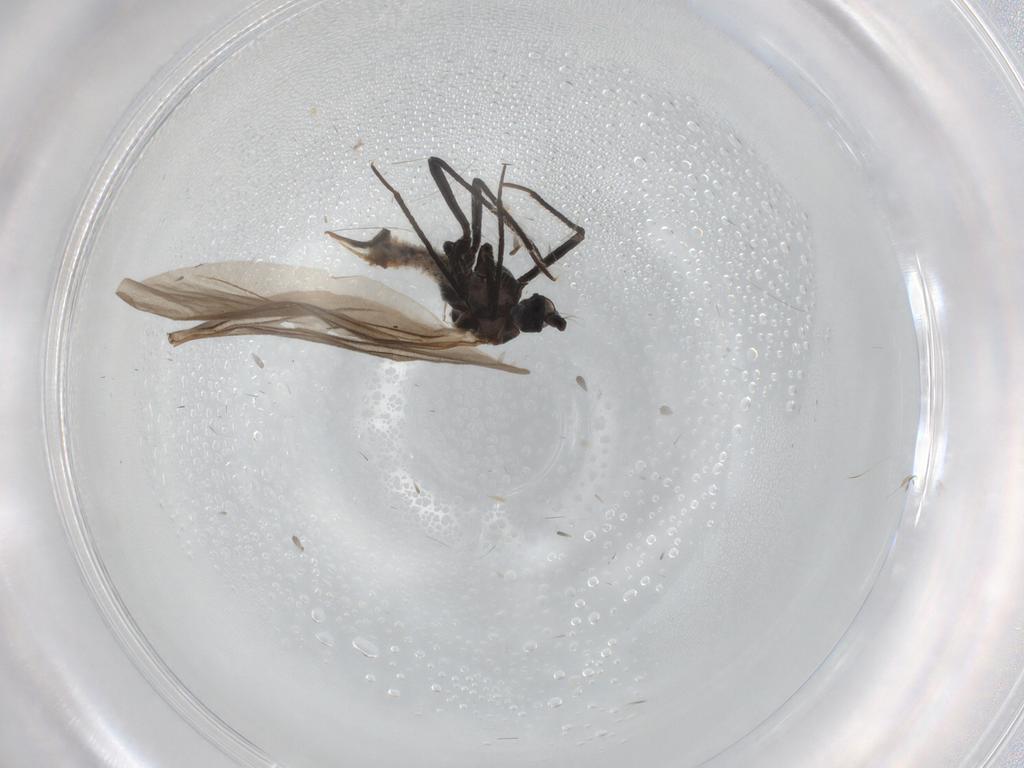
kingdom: Animalia
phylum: Arthropoda
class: Insecta
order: Hemiptera
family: Putoidae
